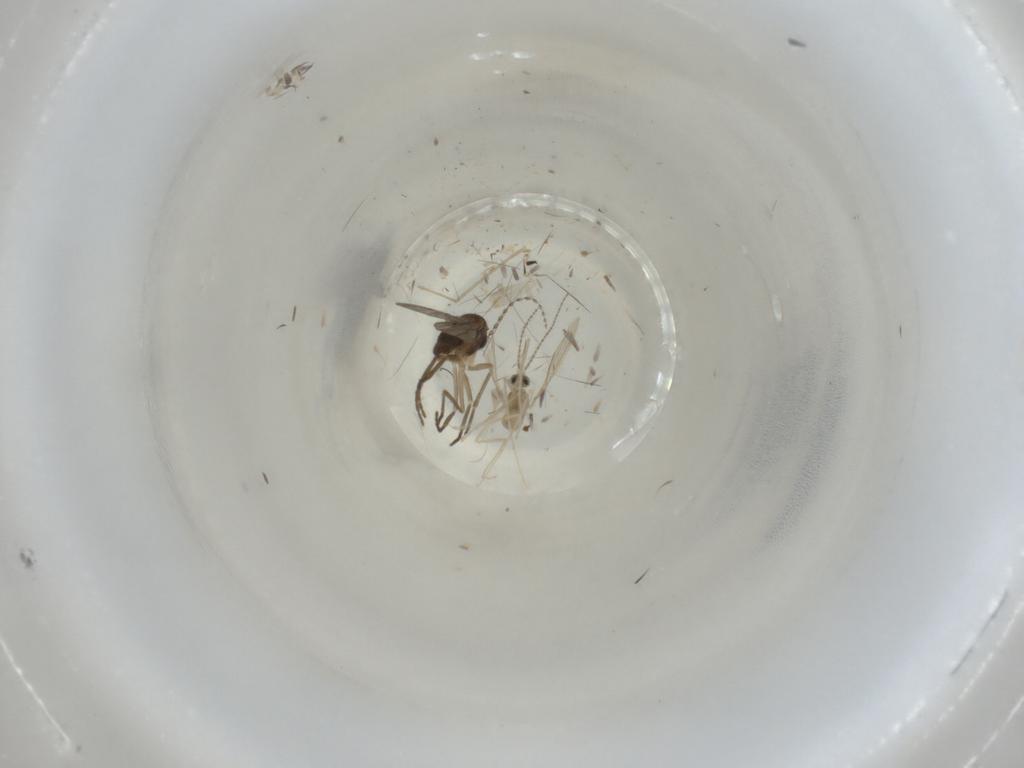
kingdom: Animalia
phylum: Arthropoda
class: Insecta
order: Diptera
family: Cecidomyiidae
